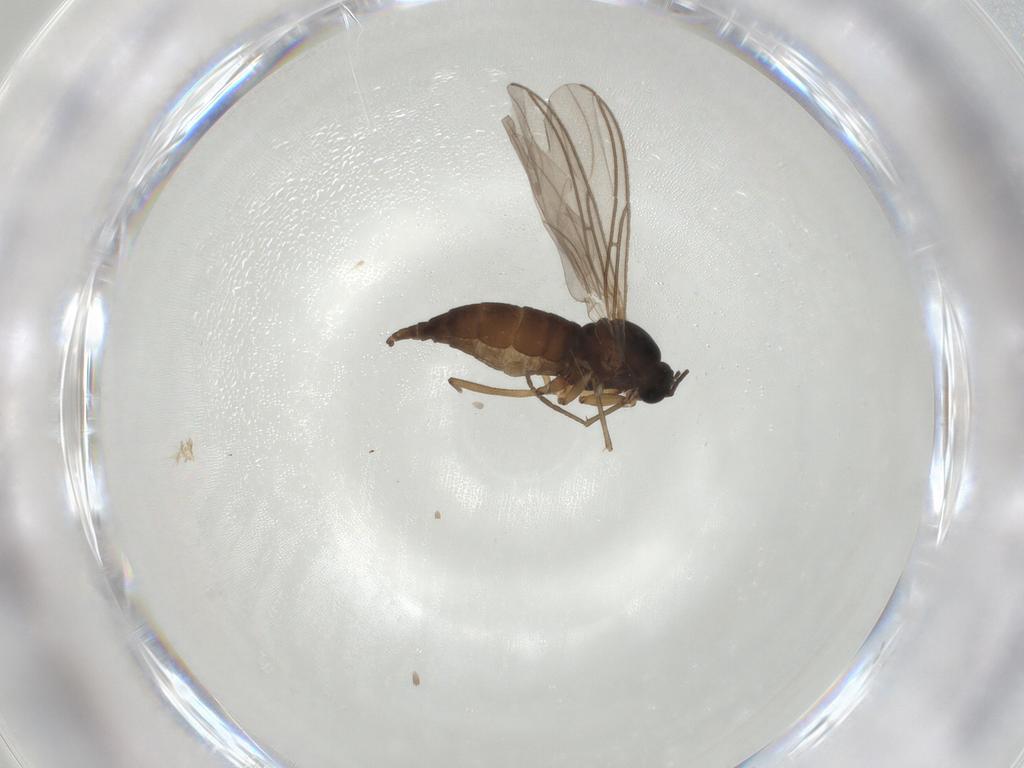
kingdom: Animalia
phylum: Arthropoda
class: Insecta
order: Diptera
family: Sciaridae
